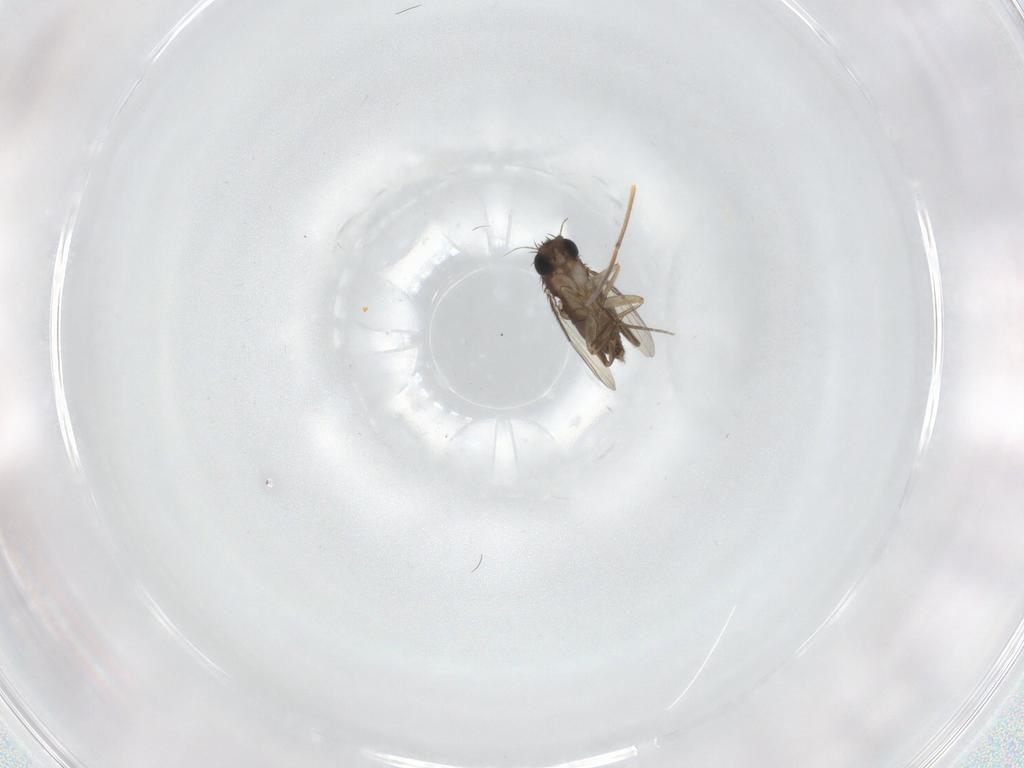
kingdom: Animalia
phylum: Arthropoda
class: Insecta
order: Diptera
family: Phoridae
